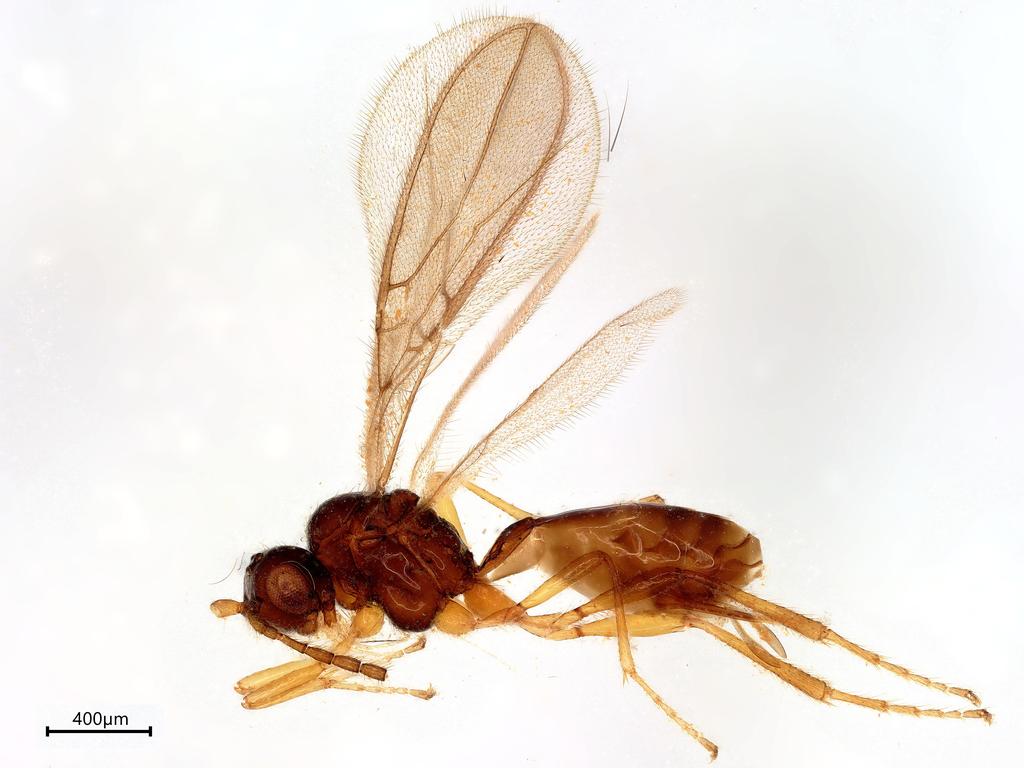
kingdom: Animalia
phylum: Arthropoda
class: Insecta
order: Hymenoptera
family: Braconidae
